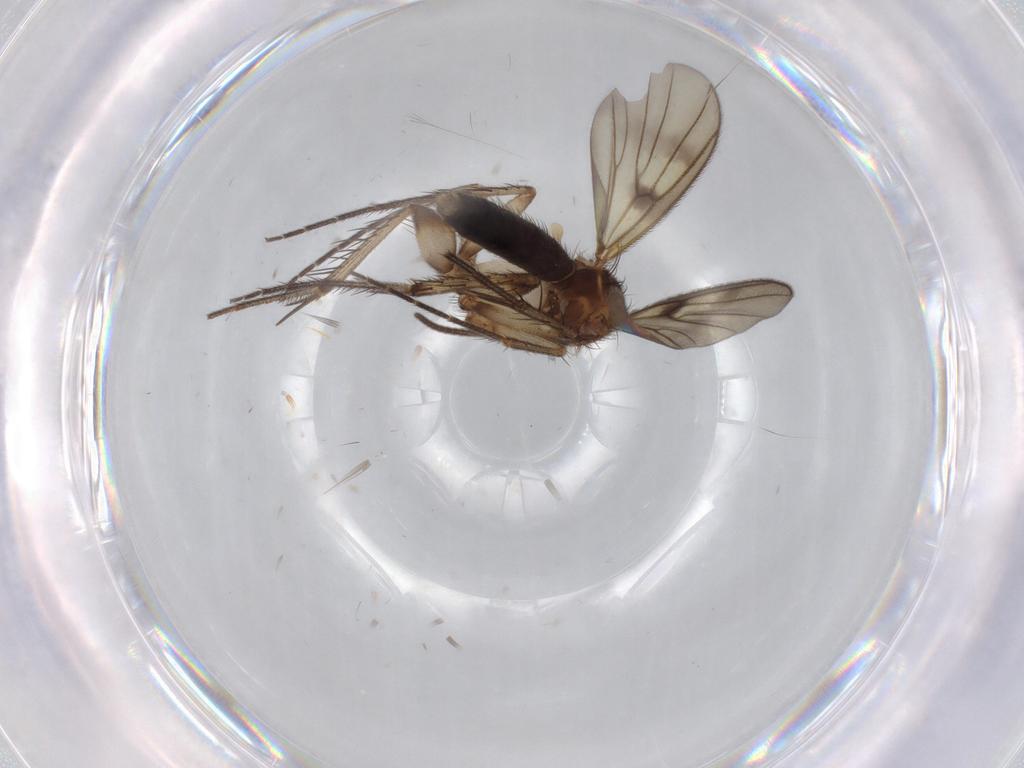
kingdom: Animalia
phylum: Arthropoda
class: Insecta
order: Diptera
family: Mycetophilidae
